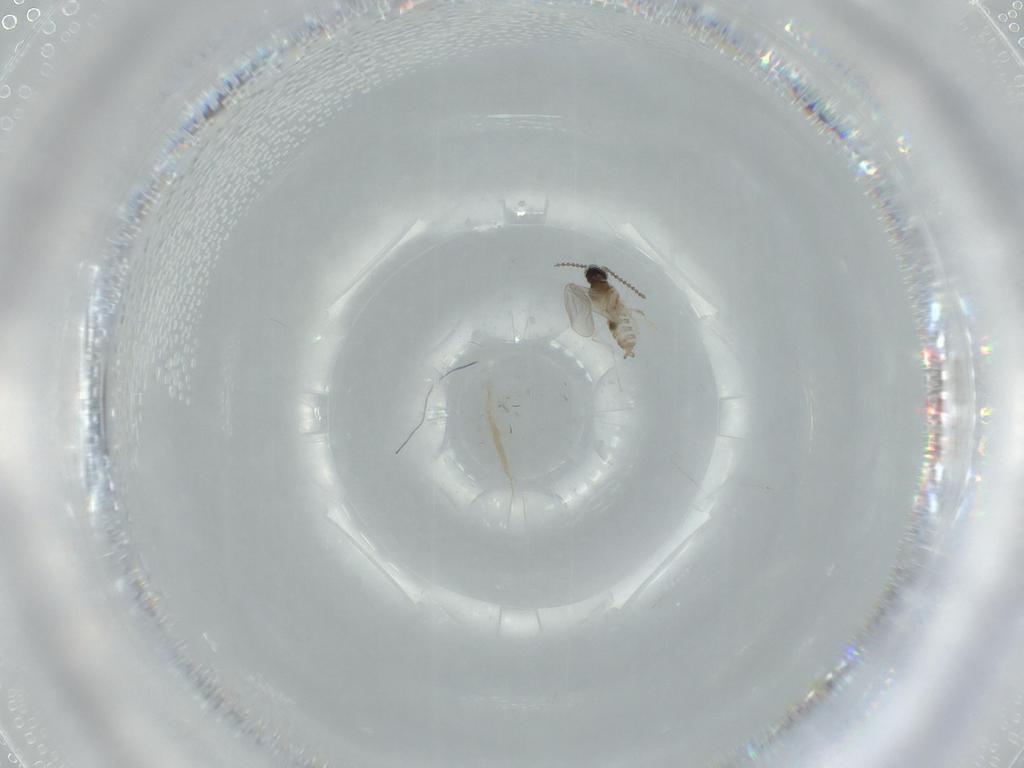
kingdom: Animalia
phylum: Arthropoda
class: Insecta
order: Diptera
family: Cecidomyiidae
